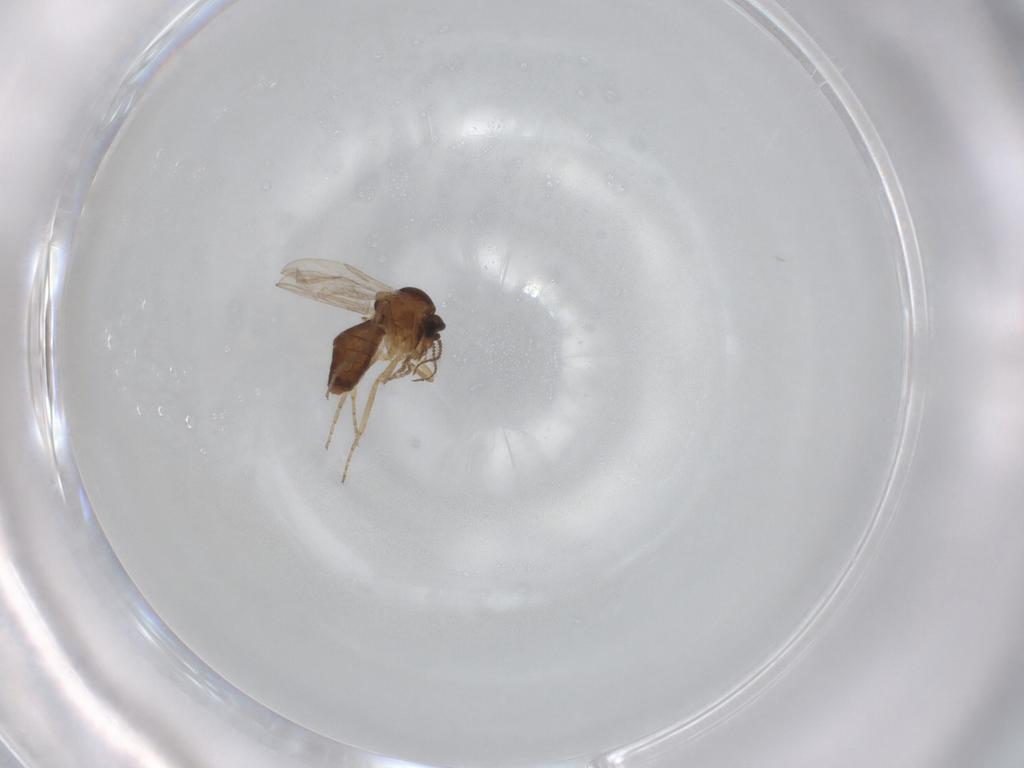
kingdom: Animalia
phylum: Arthropoda
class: Insecta
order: Diptera
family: Ceratopogonidae
